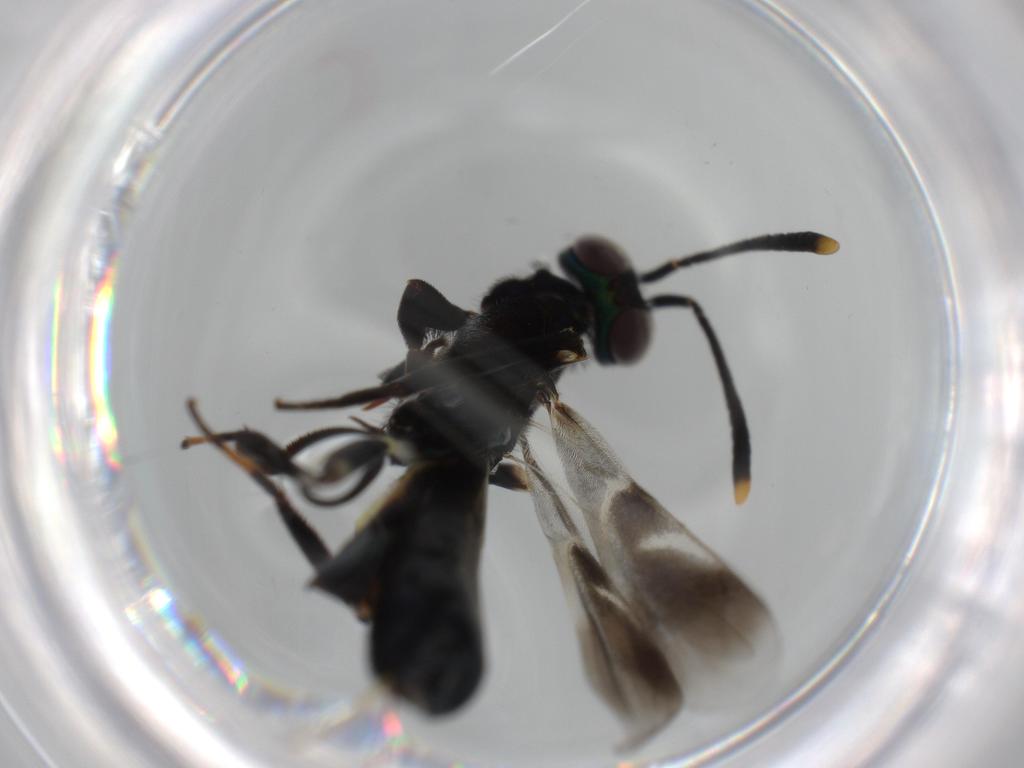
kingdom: Animalia
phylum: Arthropoda
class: Insecta
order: Hymenoptera
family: Eupelmidae
